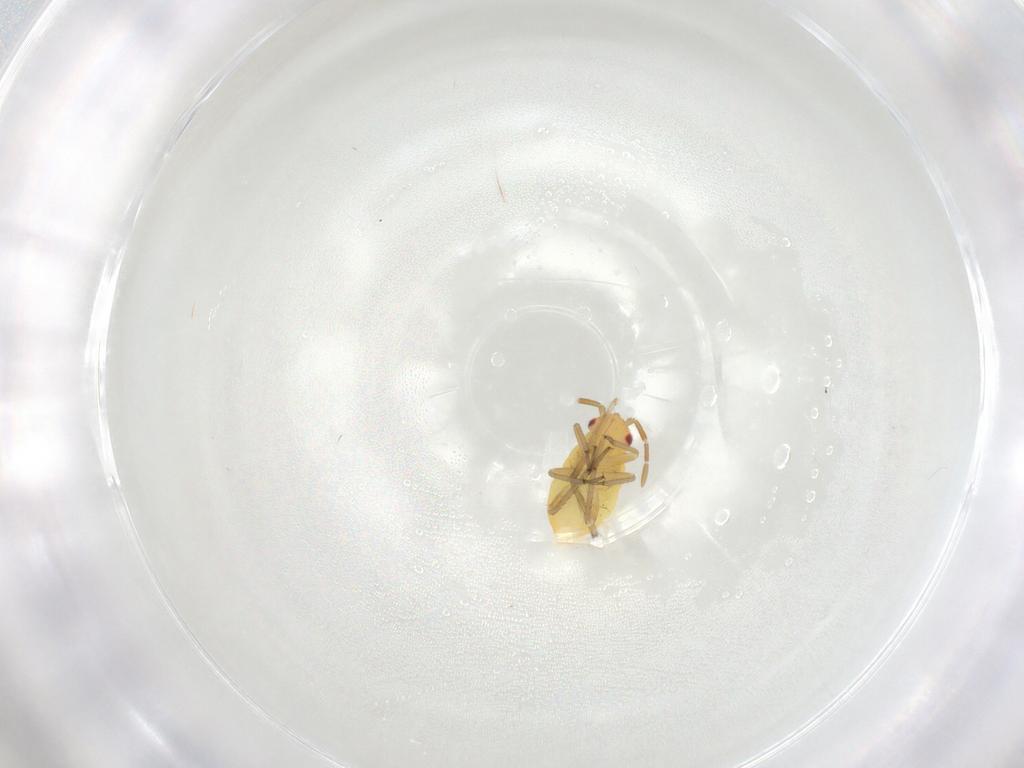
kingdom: Animalia
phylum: Arthropoda
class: Insecta
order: Hemiptera
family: Miridae
